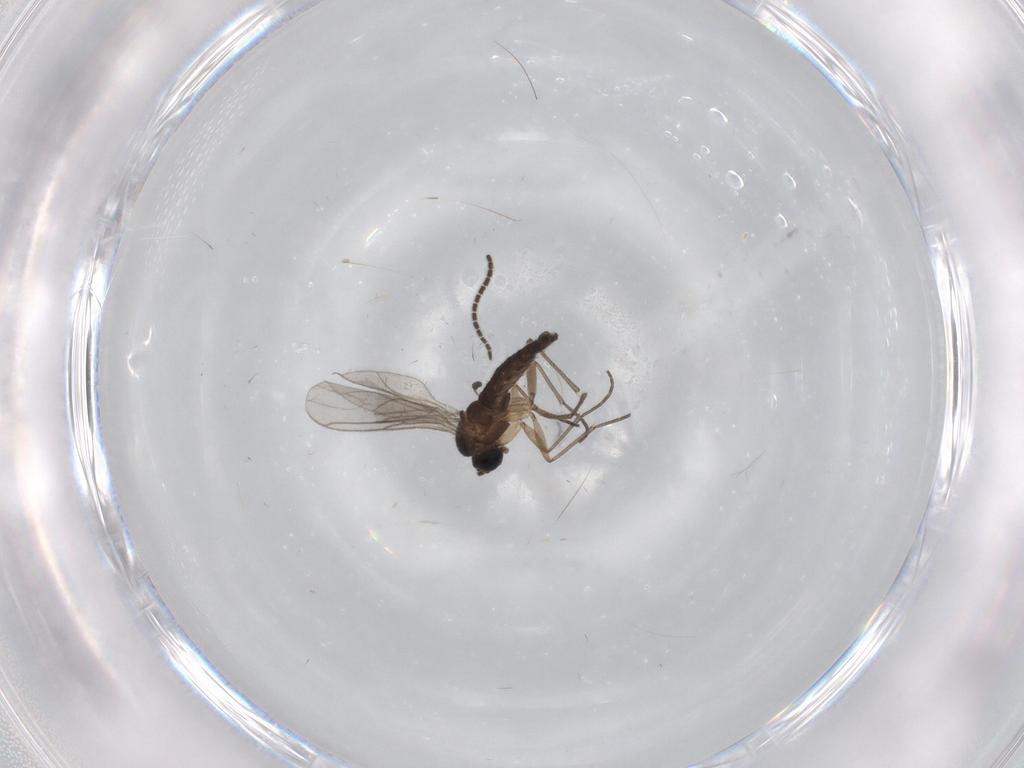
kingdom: Animalia
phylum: Arthropoda
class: Insecta
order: Diptera
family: Sciaridae
